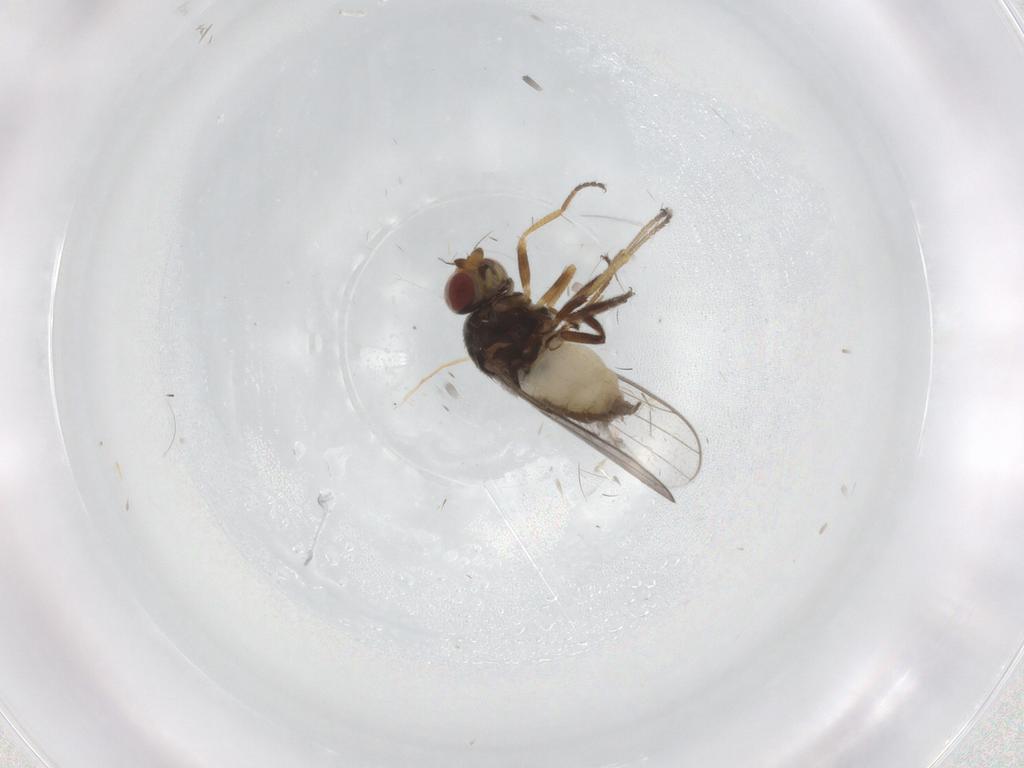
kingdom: Animalia
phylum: Arthropoda
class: Insecta
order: Diptera
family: Chloropidae
